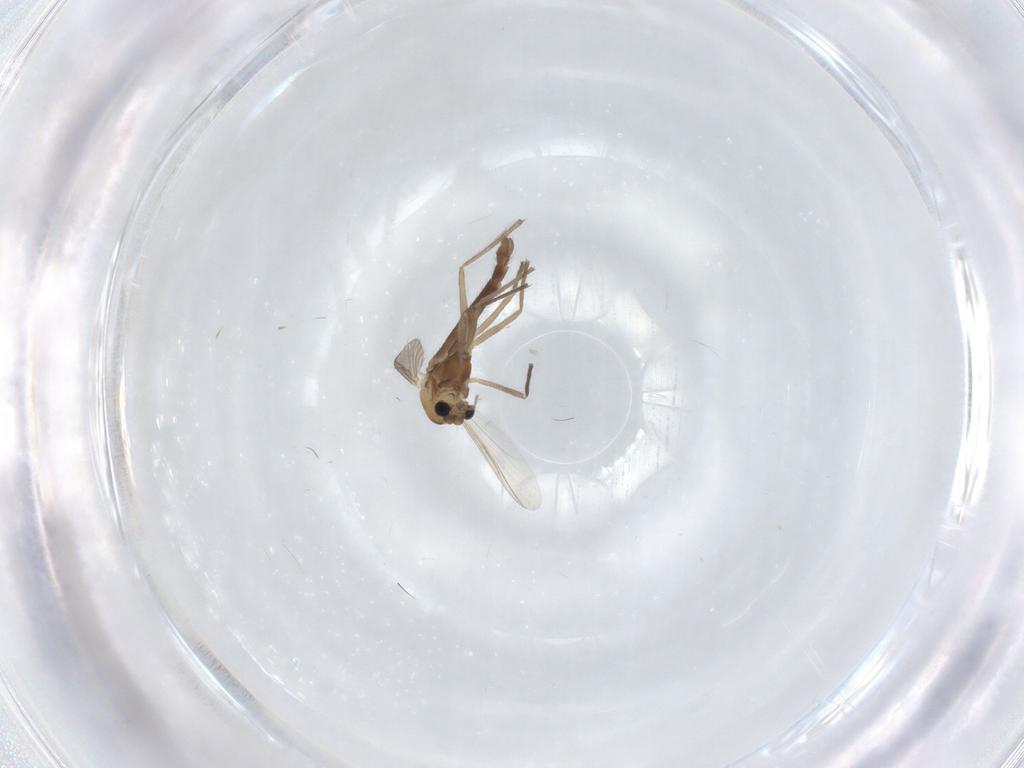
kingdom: Animalia
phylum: Arthropoda
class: Insecta
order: Diptera
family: Chironomidae
